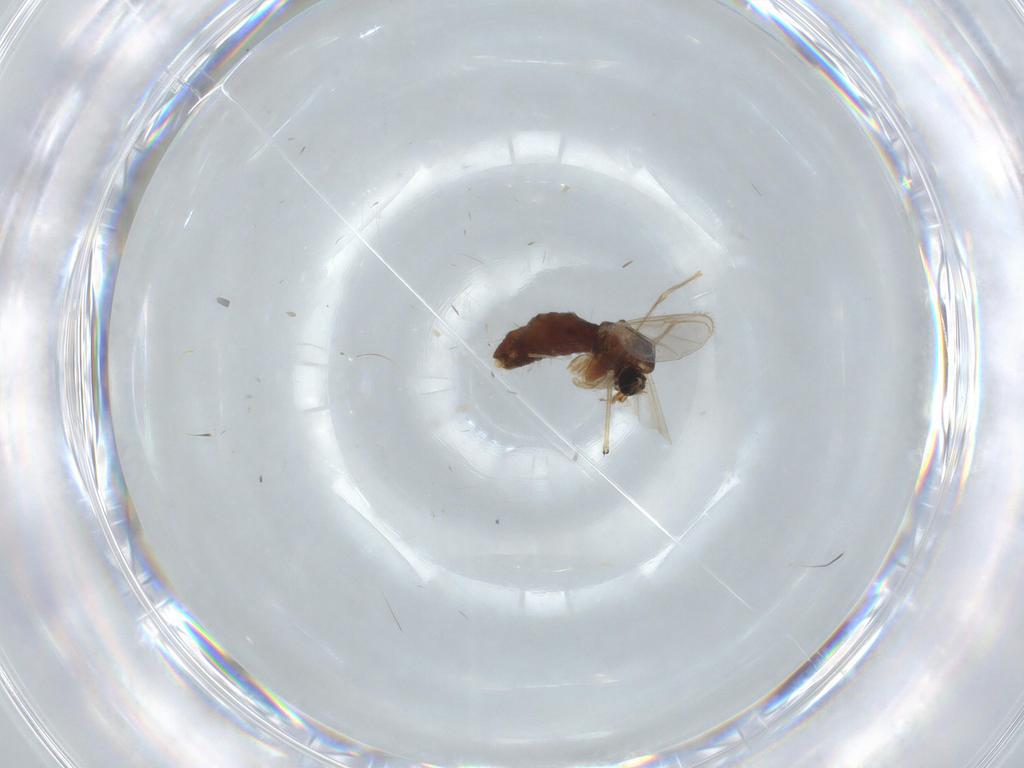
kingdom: Animalia
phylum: Arthropoda
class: Insecta
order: Diptera
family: Chironomidae
